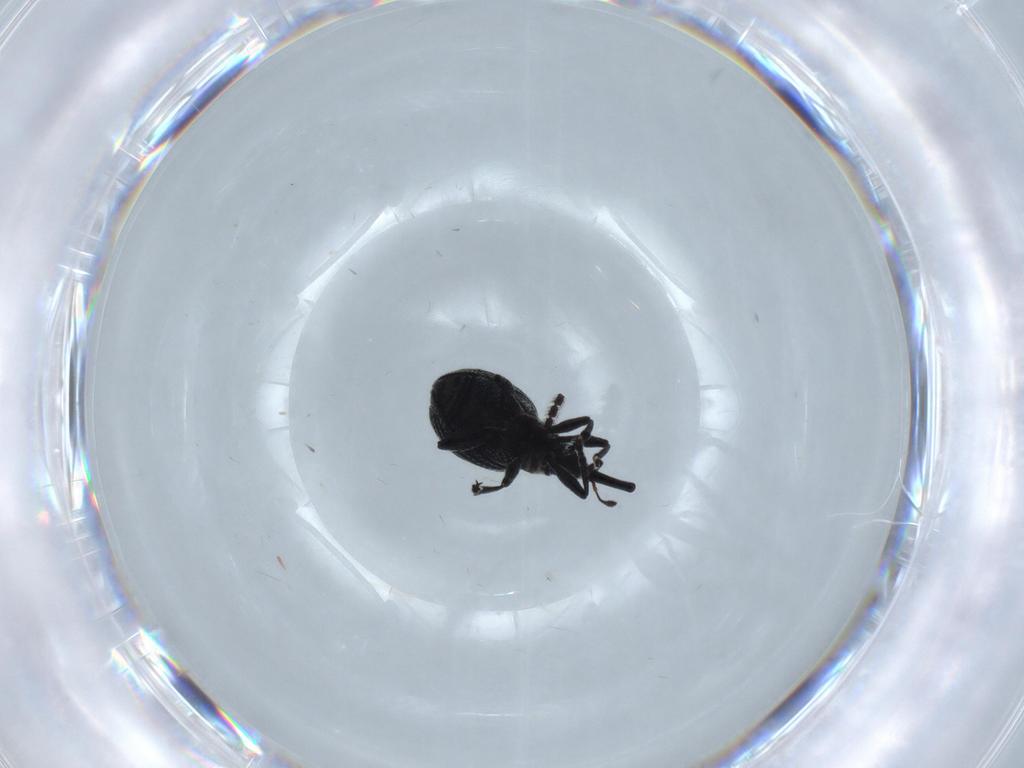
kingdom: Animalia
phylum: Arthropoda
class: Insecta
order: Coleoptera
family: Brentidae
